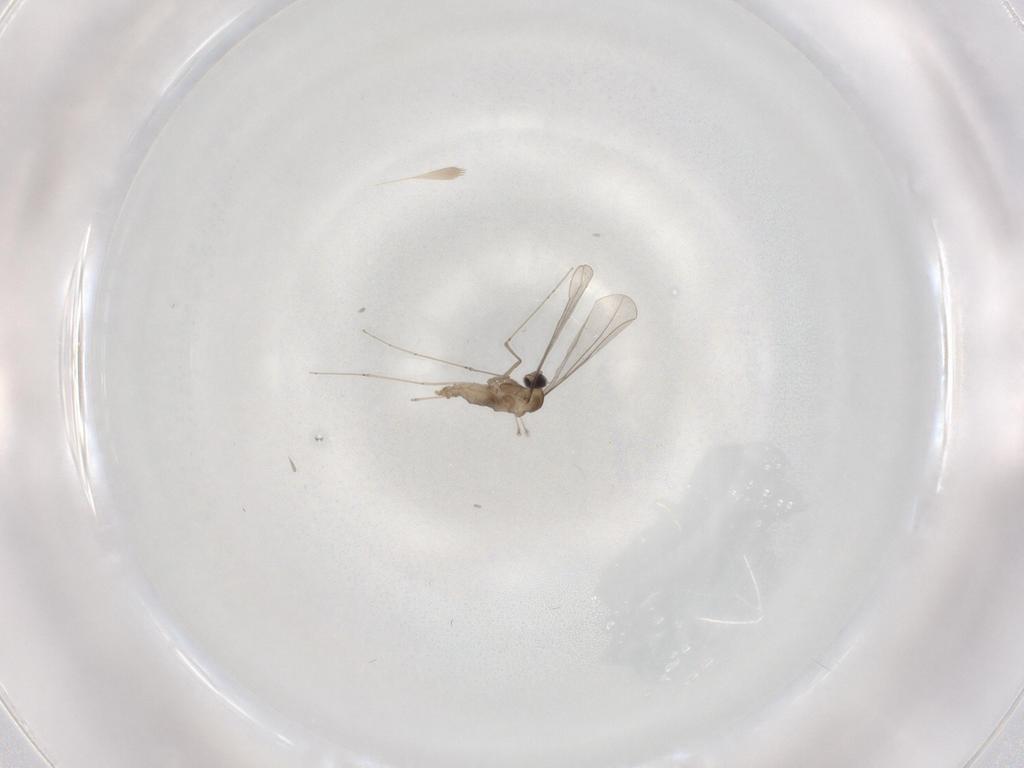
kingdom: Animalia
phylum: Arthropoda
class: Insecta
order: Diptera
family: Cecidomyiidae
